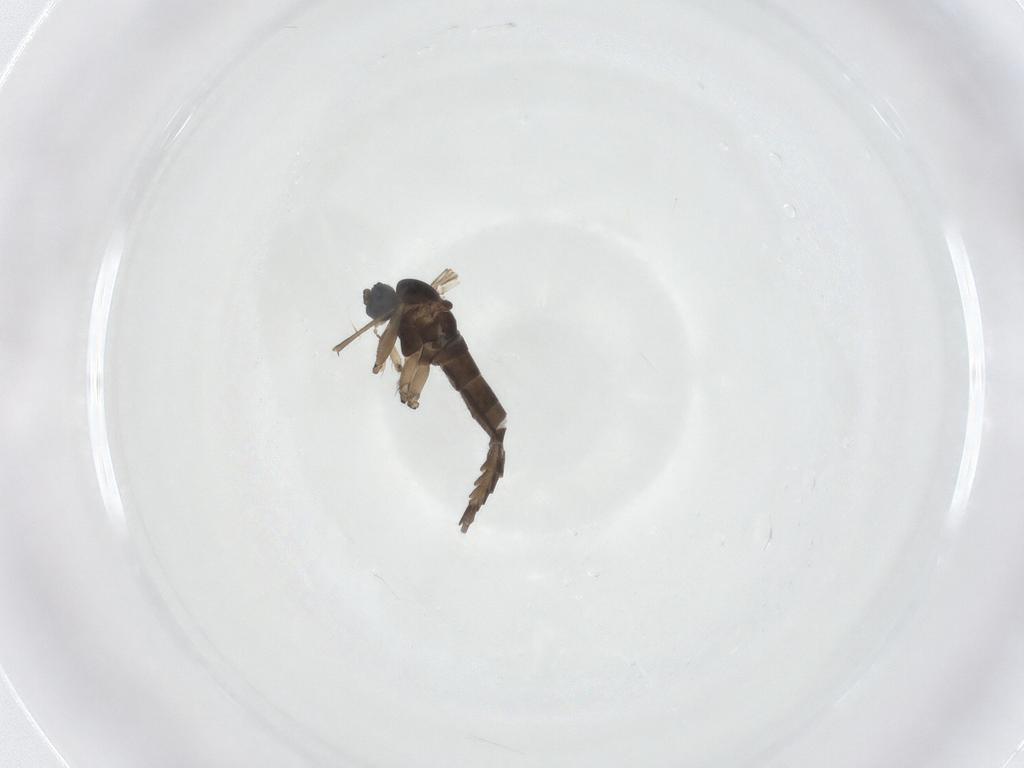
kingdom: Animalia
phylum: Arthropoda
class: Insecta
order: Diptera
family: Sciaridae
